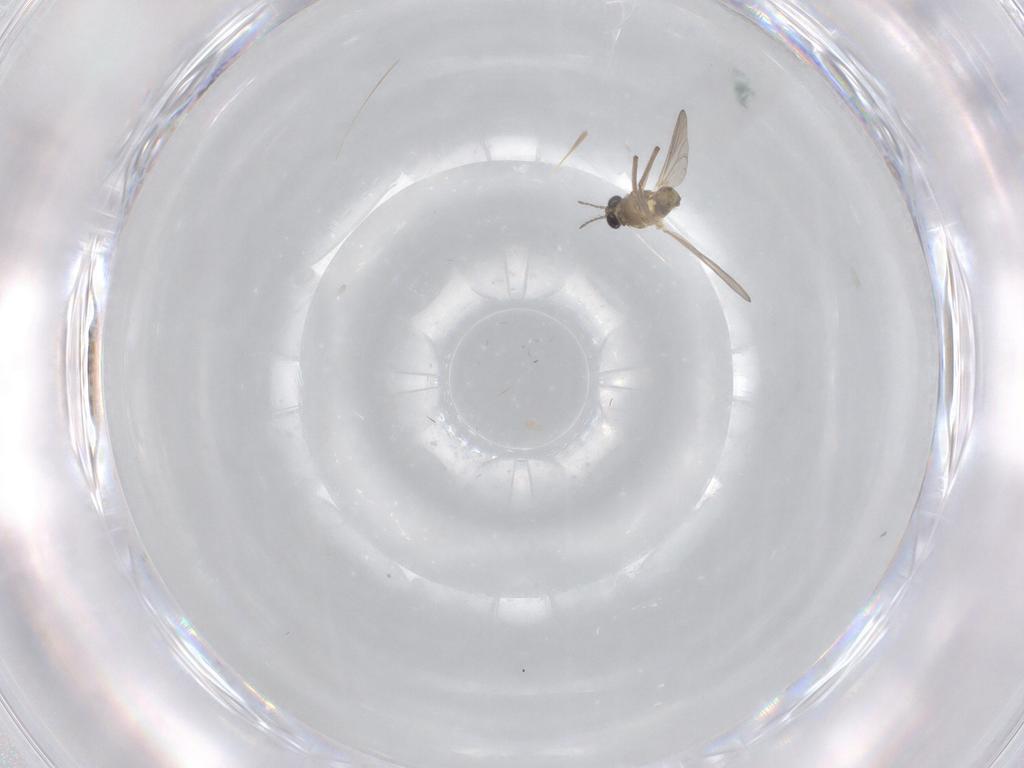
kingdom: Animalia
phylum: Arthropoda
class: Insecta
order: Diptera
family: Chironomidae
